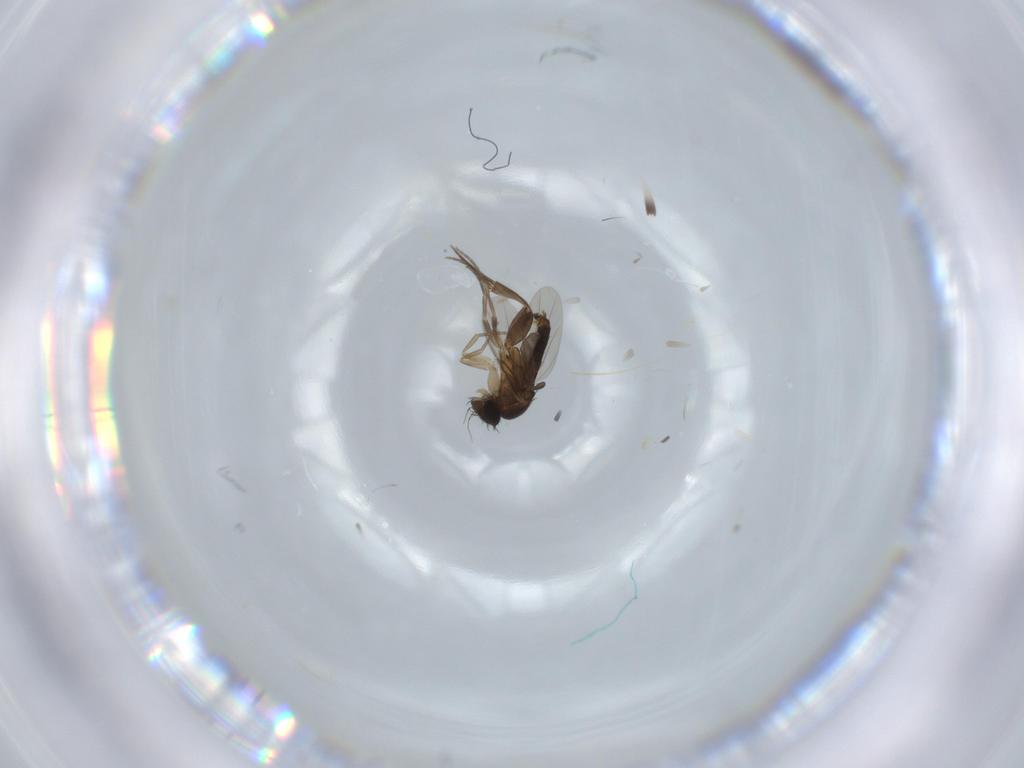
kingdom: Animalia
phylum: Arthropoda
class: Insecta
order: Diptera
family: Phoridae
